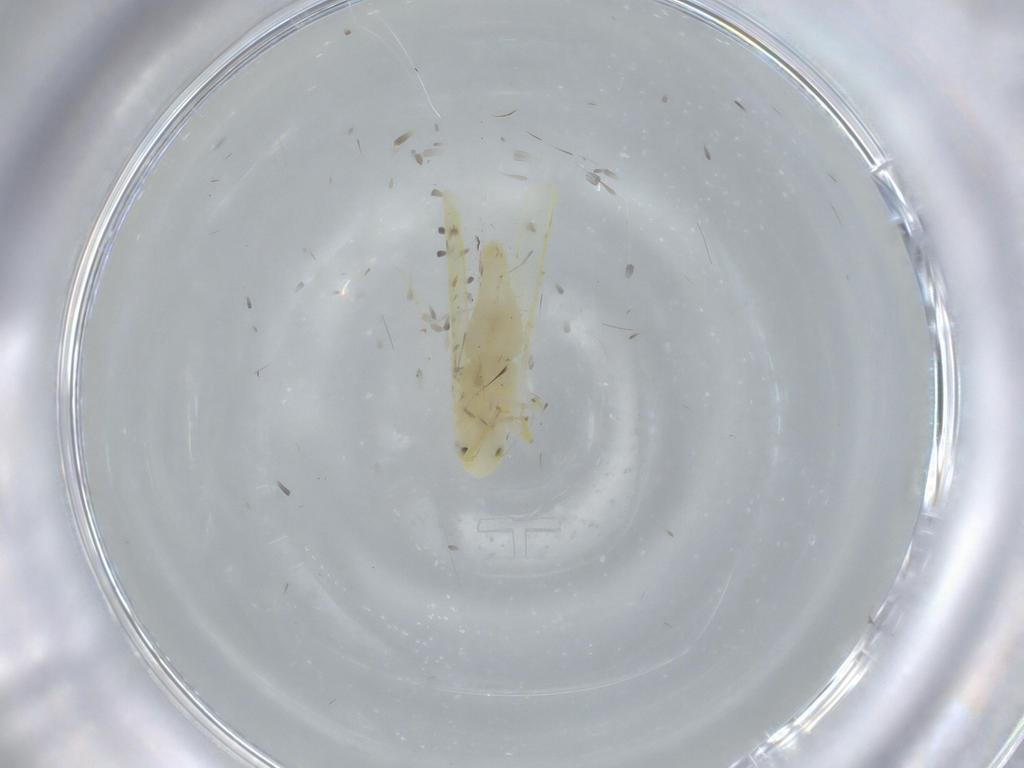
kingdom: Animalia
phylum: Arthropoda
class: Insecta
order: Hemiptera
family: Cicadellidae
